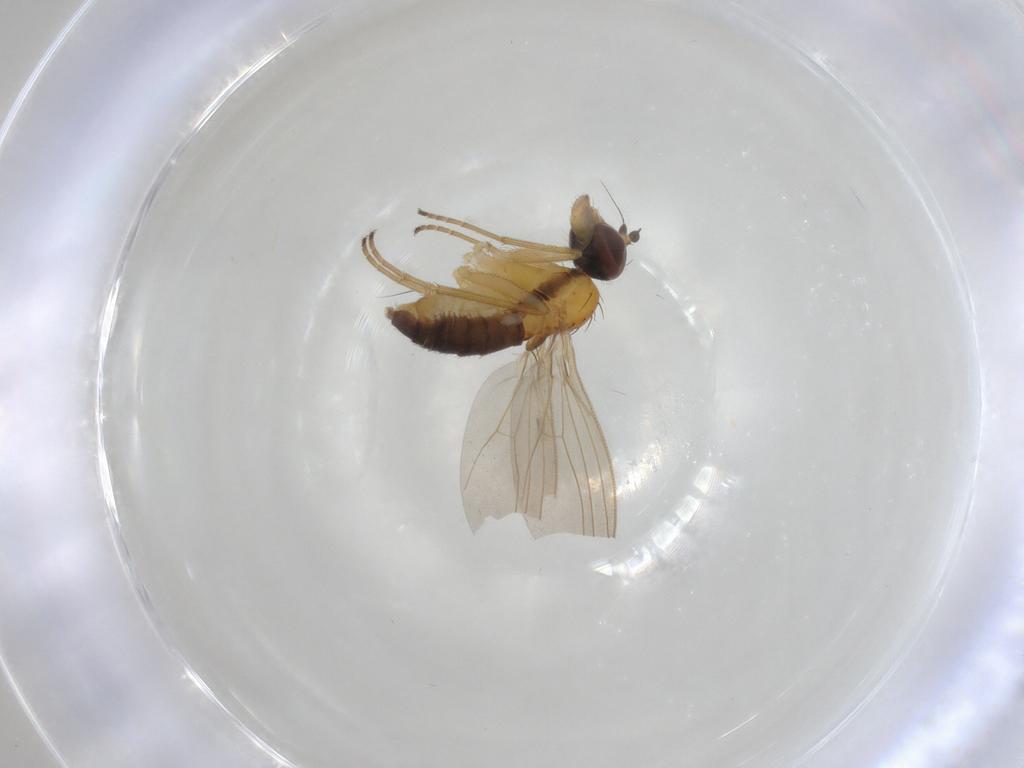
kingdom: Animalia
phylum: Arthropoda
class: Insecta
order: Diptera
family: Dolichopodidae
